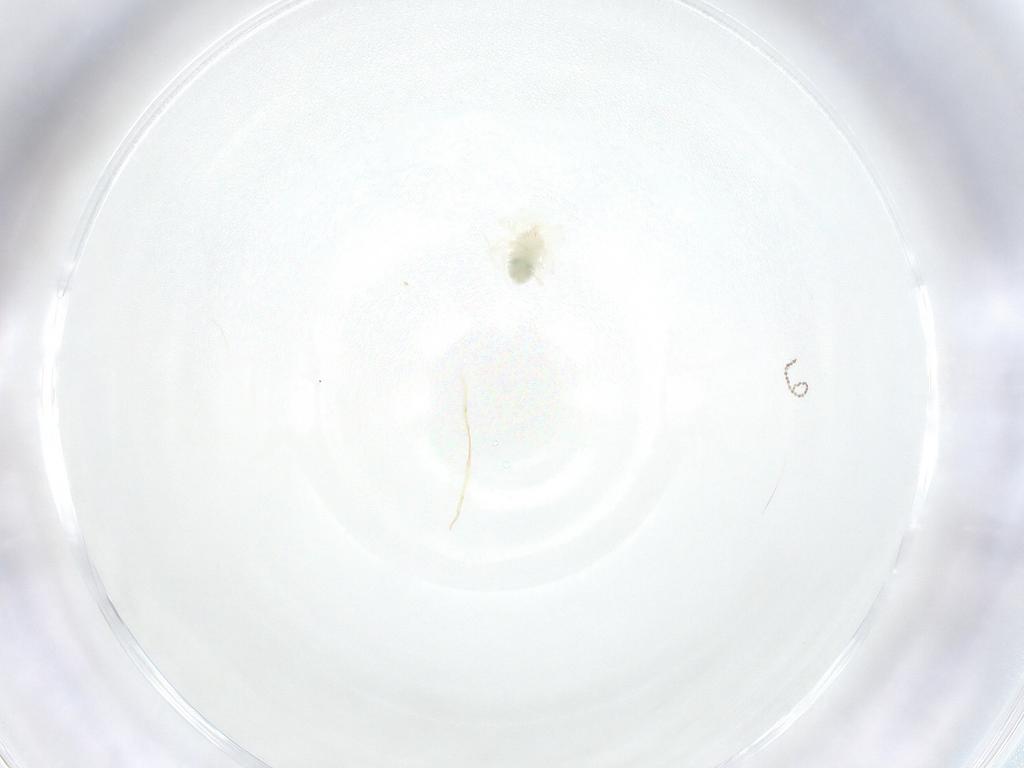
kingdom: Animalia
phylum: Arthropoda
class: Arachnida
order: Trombidiformes
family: Anystidae
